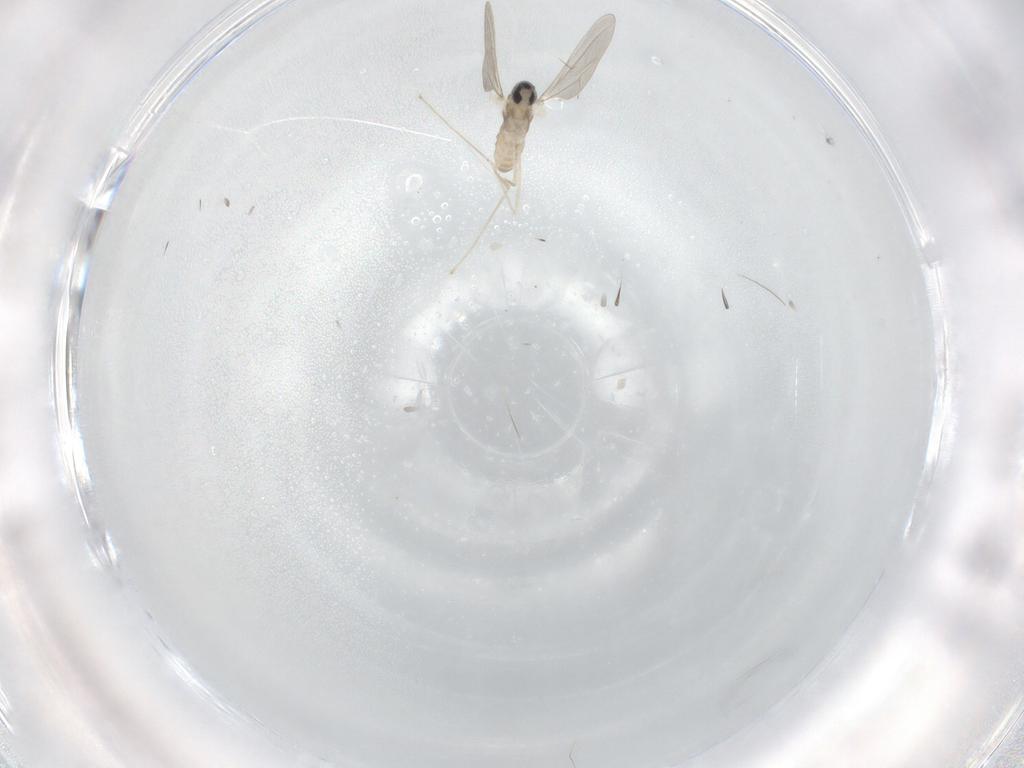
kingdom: Animalia
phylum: Arthropoda
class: Insecta
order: Diptera
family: Cecidomyiidae
